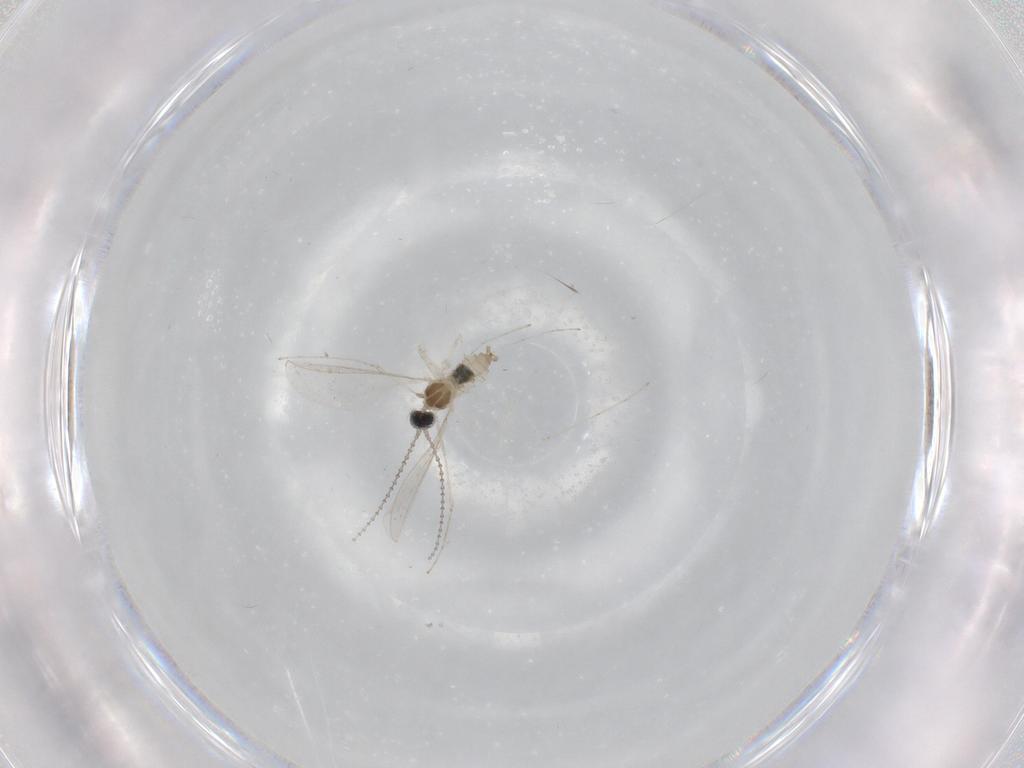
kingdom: Animalia
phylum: Arthropoda
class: Insecta
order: Diptera
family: Cecidomyiidae
